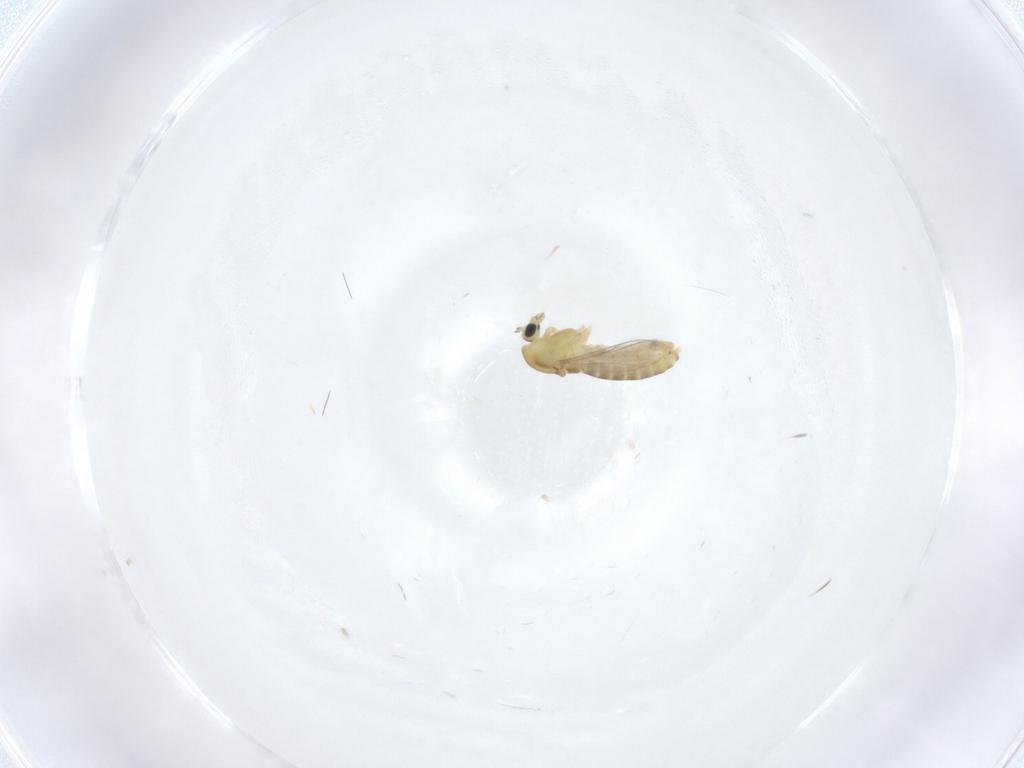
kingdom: Animalia
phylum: Arthropoda
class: Insecta
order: Diptera
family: Chironomidae
